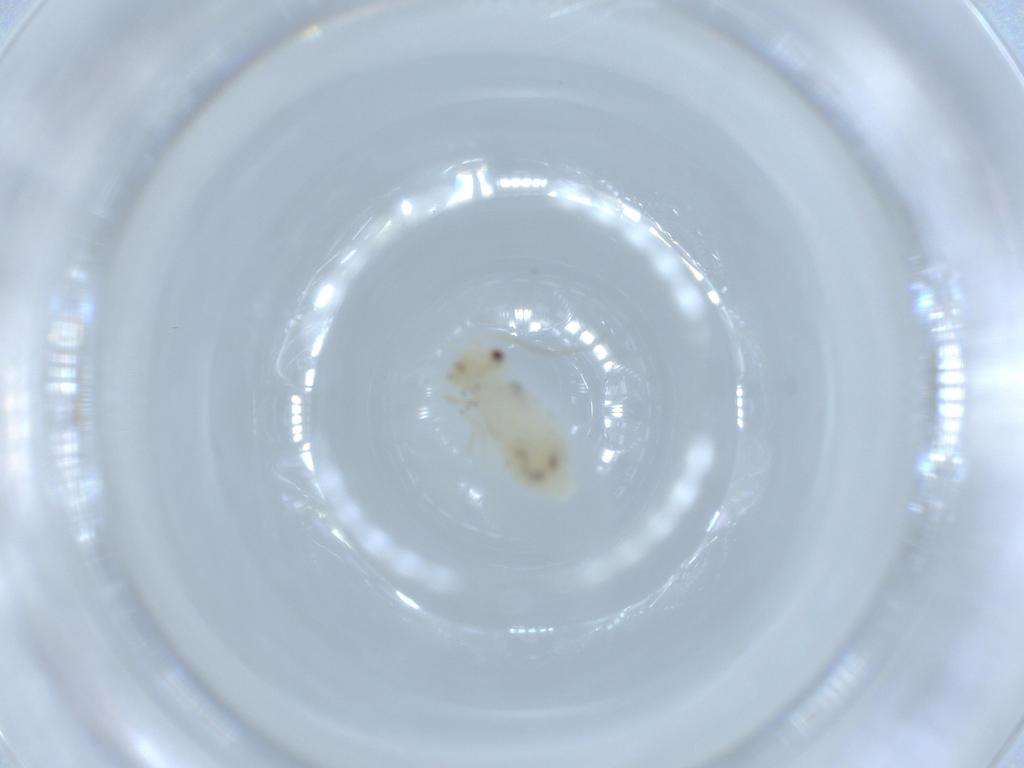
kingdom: Animalia
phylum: Arthropoda
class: Insecta
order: Psocodea
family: Caeciliusidae
